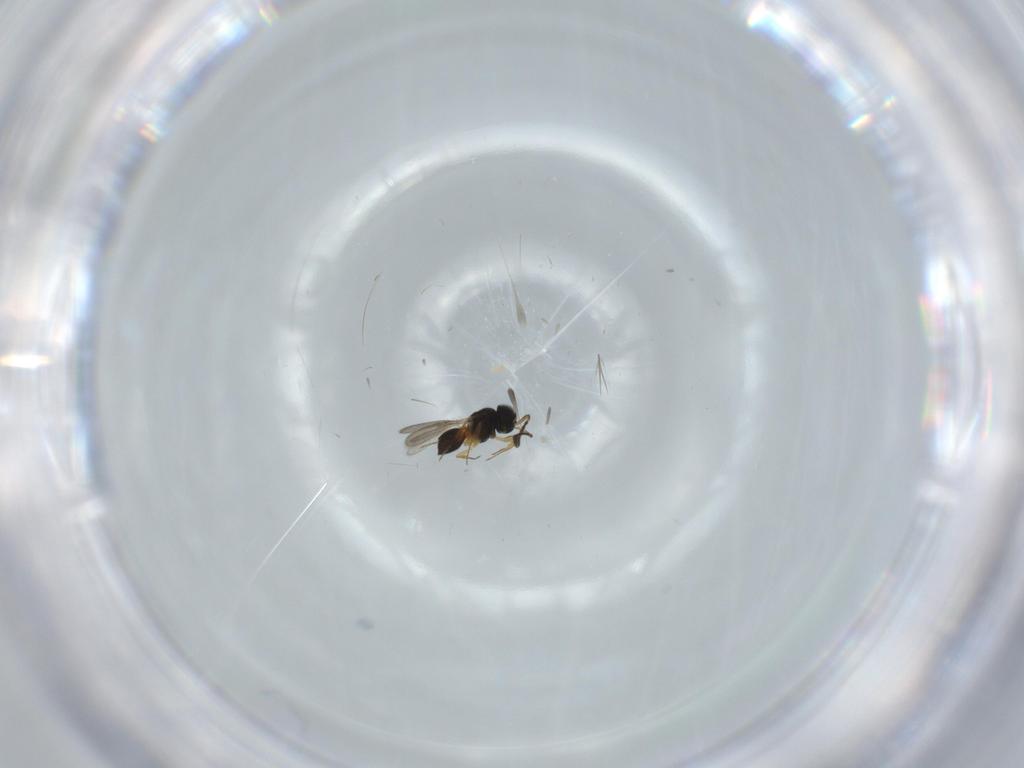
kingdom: Animalia
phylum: Arthropoda
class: Insecta
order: Hymenoptera
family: Scelionidae
